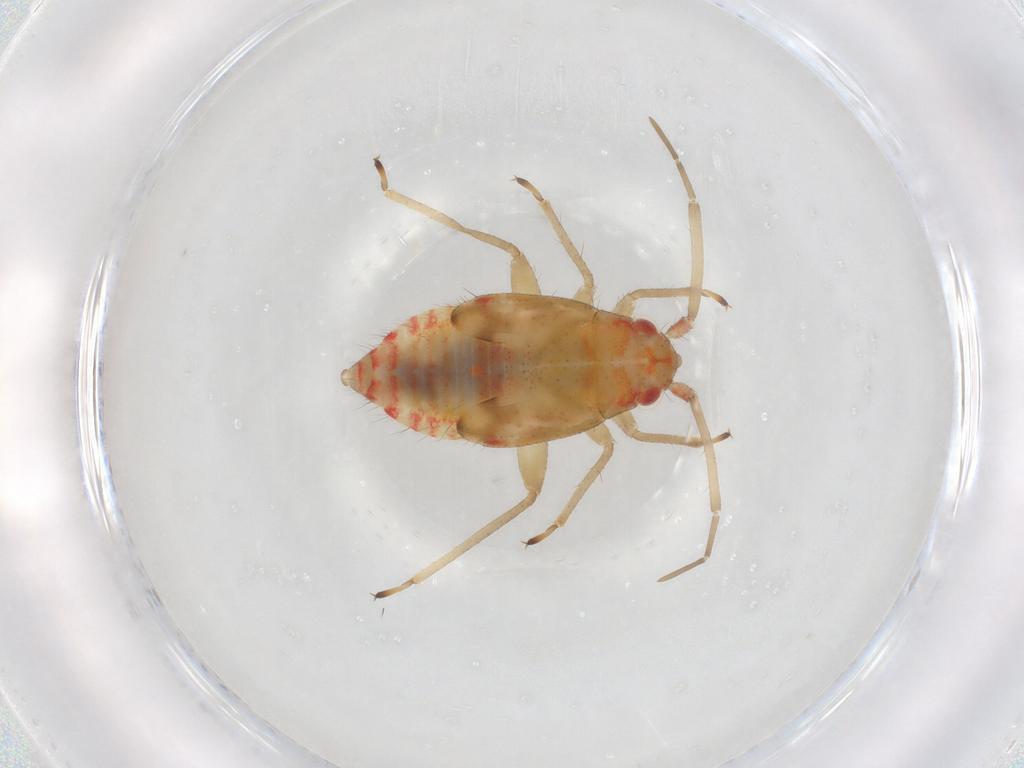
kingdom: Animalia
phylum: Arthropoda
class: Insecta
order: Hemiptera
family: Miridae
